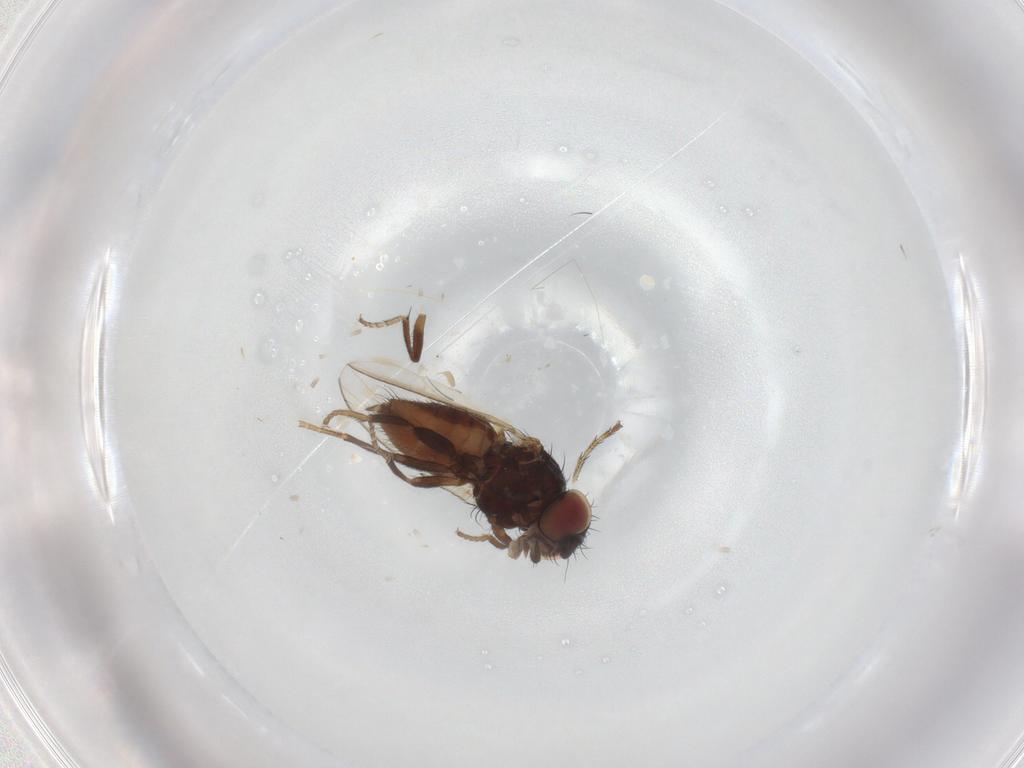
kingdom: Animalia
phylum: Arthropoda
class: Insecta
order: Diptera
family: Milichiidae
